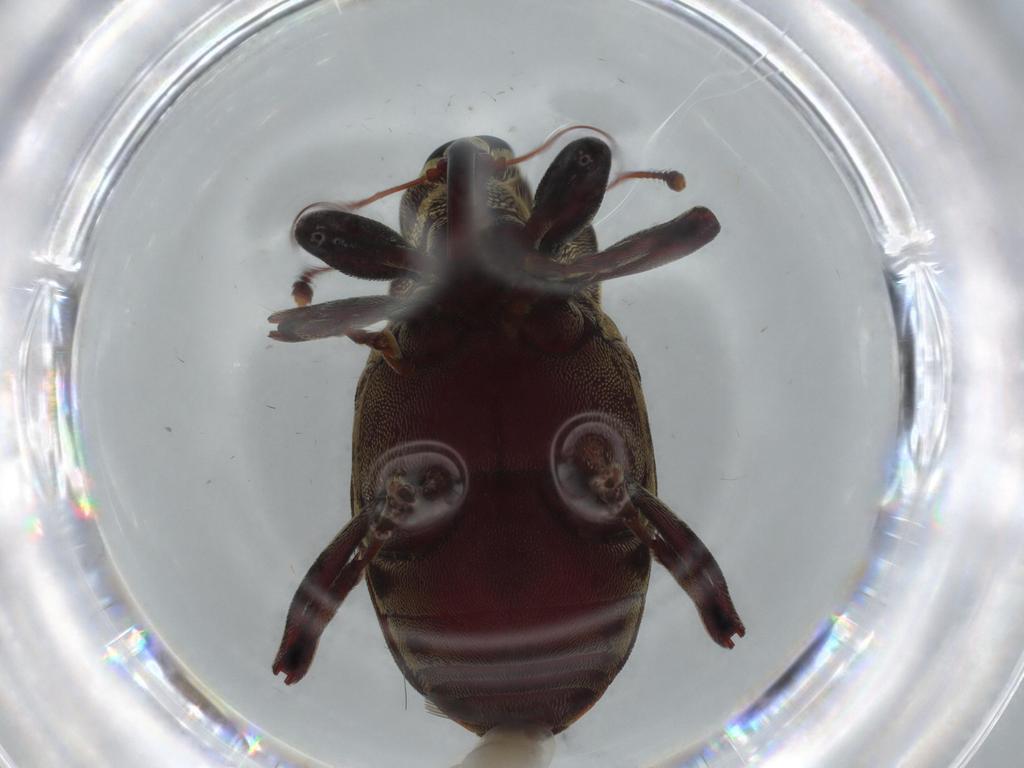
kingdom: Animalia
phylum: Arthropoda
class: Insecta
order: Coleoptera
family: Curculionidae
